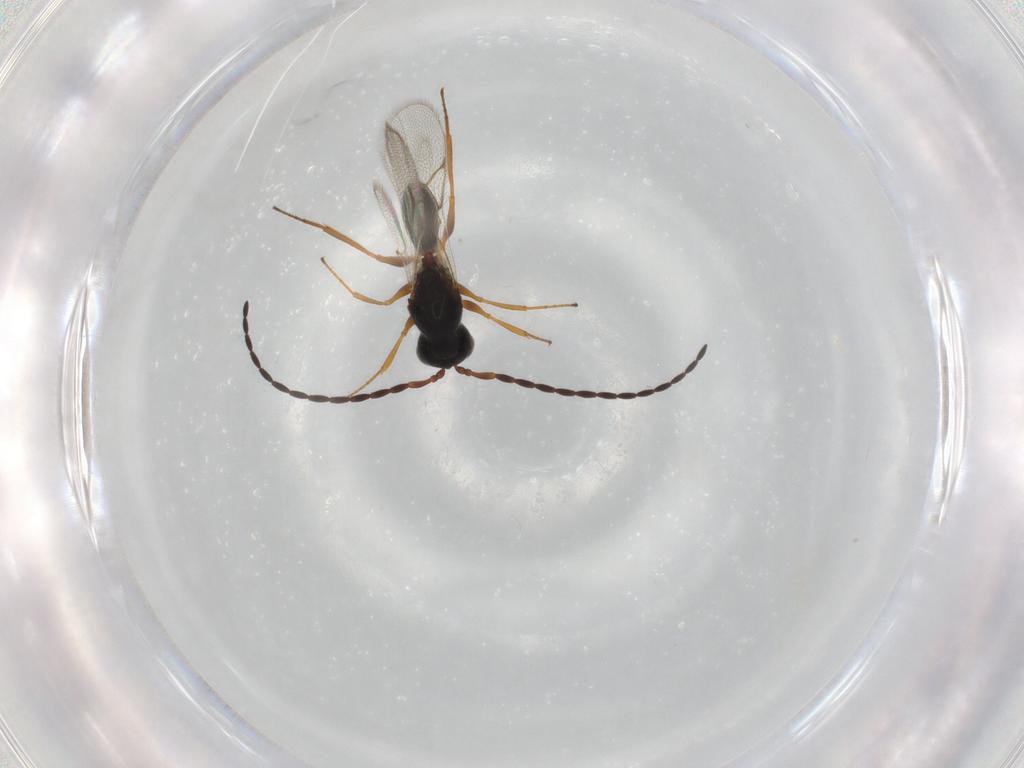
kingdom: Animalia
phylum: Arthropoda
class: Insecta
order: Hymenoptera
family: Figitidae
